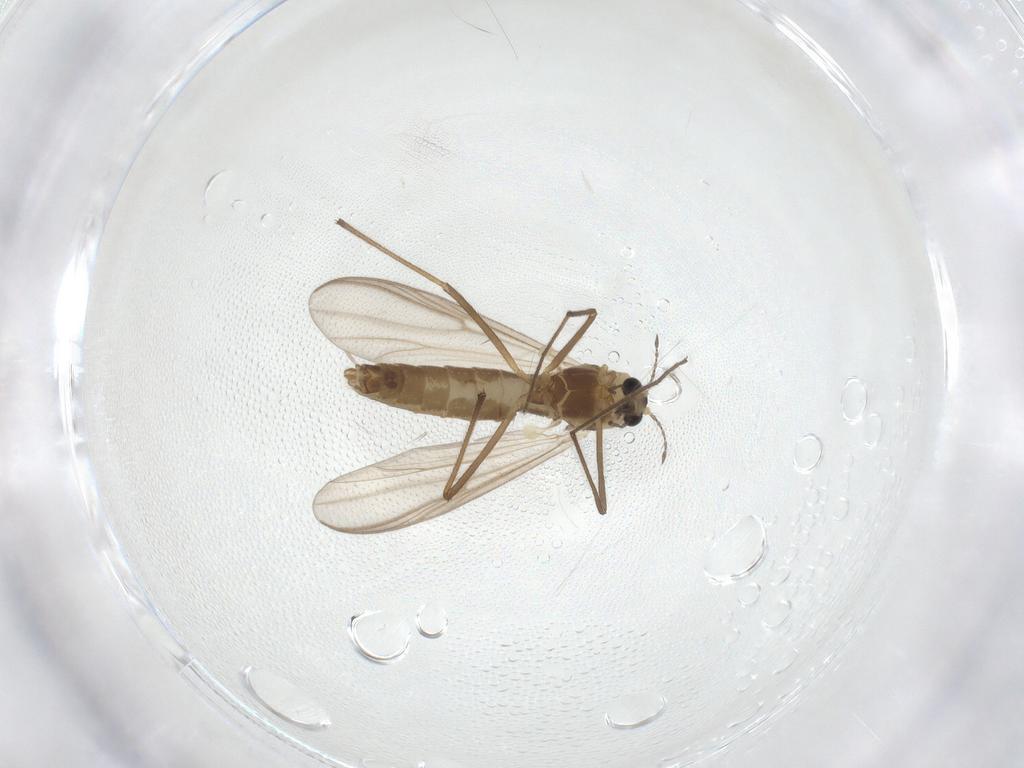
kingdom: Animalia
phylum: Arthropoda
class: Insecta
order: Diptera
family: Chironomidae
